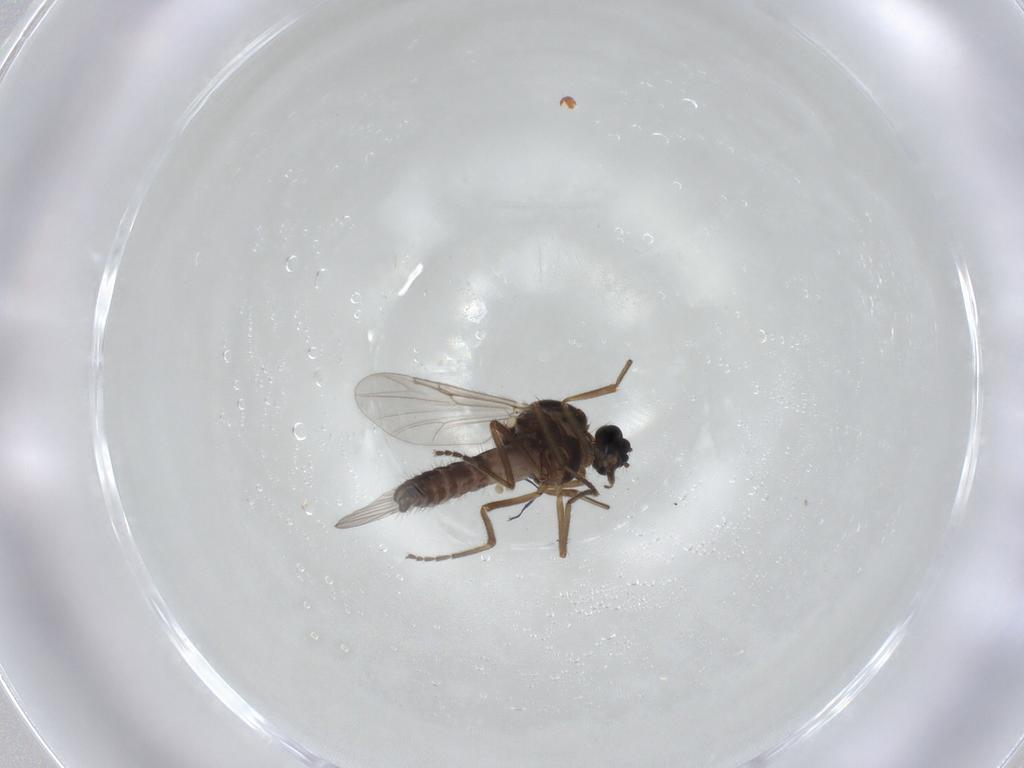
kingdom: Animalia
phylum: Arthropoda
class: Insecta
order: Diptera
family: Ceratopogonidae
